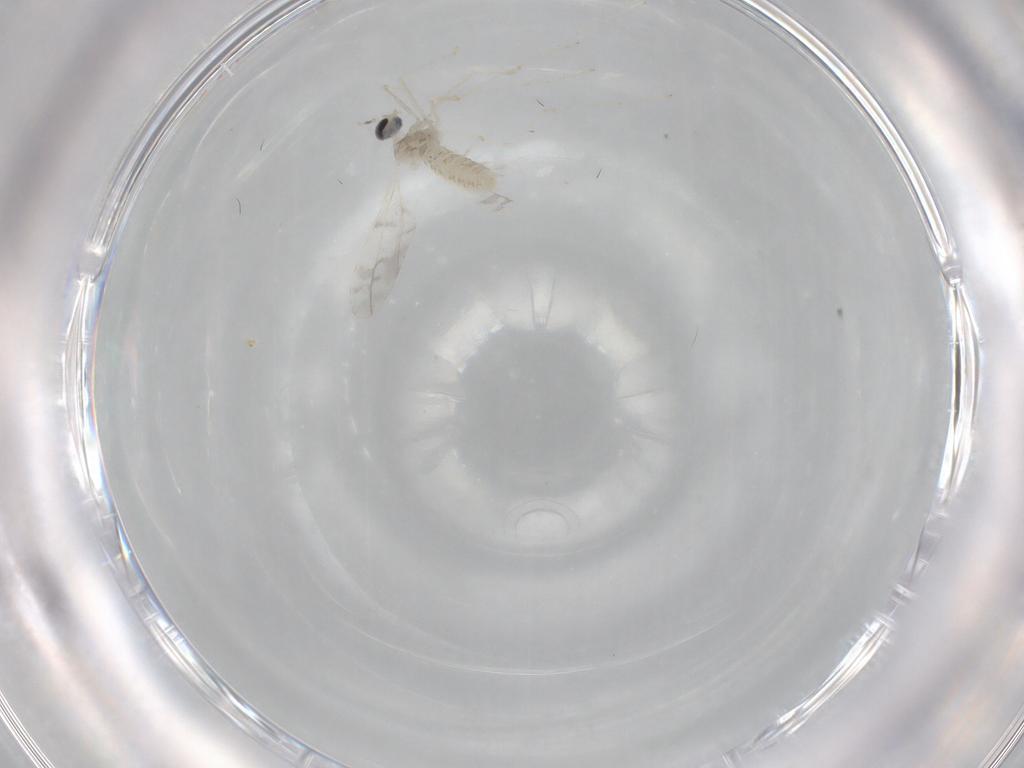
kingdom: Animalia
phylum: Arthropoda
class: Insecta
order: Diptera
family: Cecidomyiidae
